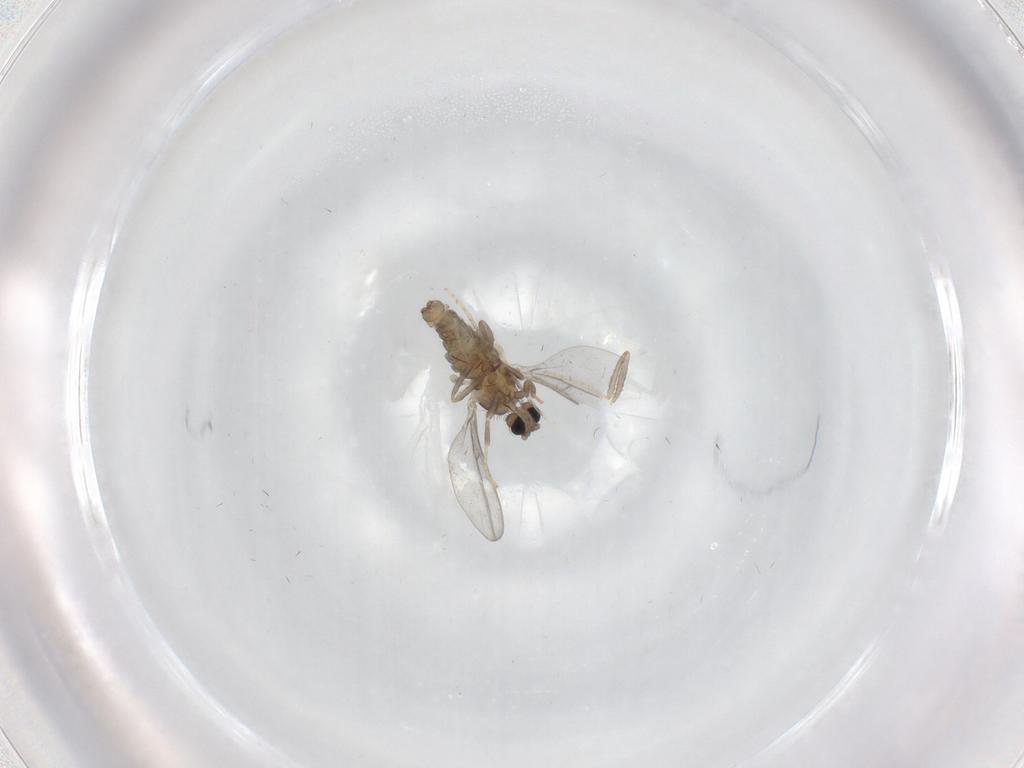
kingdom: Animalia
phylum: Arthropoda
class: Insecta
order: Diptera
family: Cecidomyiidae
